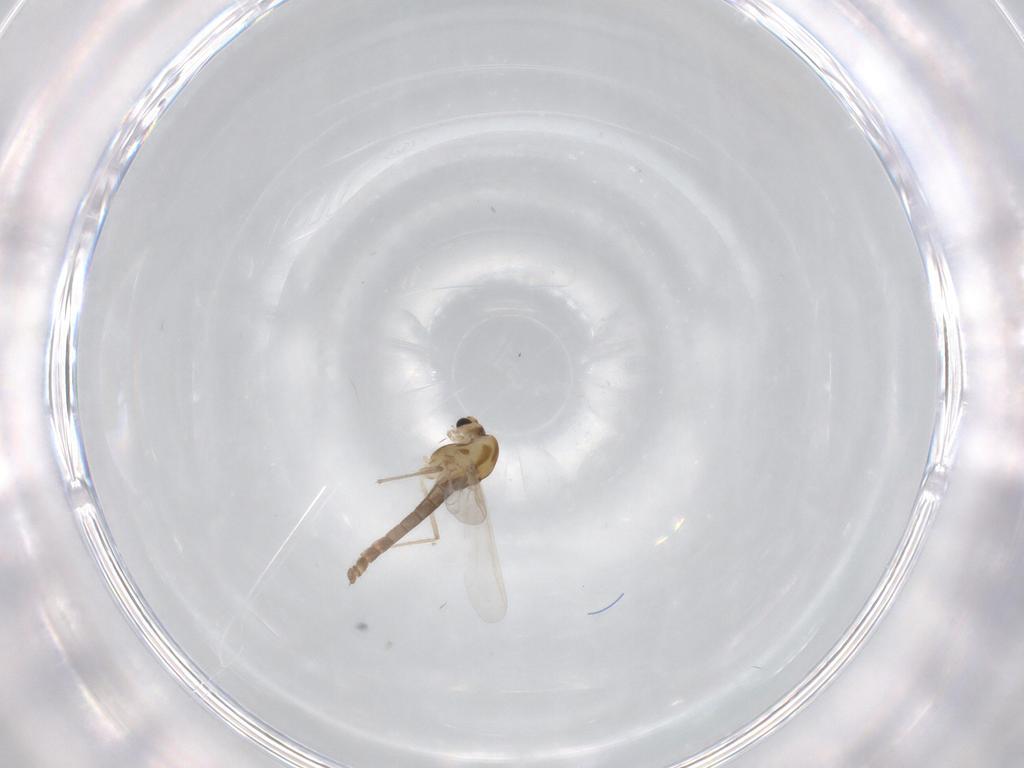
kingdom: Animalia
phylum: Arthropoda
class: Insecta
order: Diptera
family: Chironomidae
